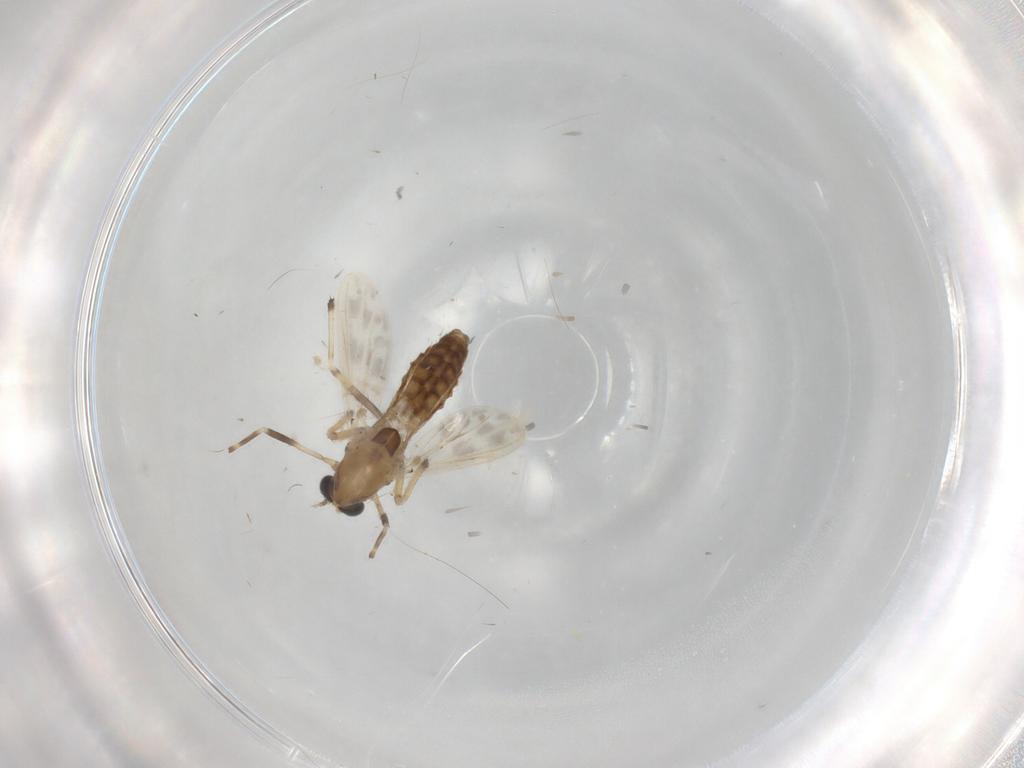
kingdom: Animalia
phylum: Arthropoda
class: Insecta
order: Diptera
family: Chironomidae
